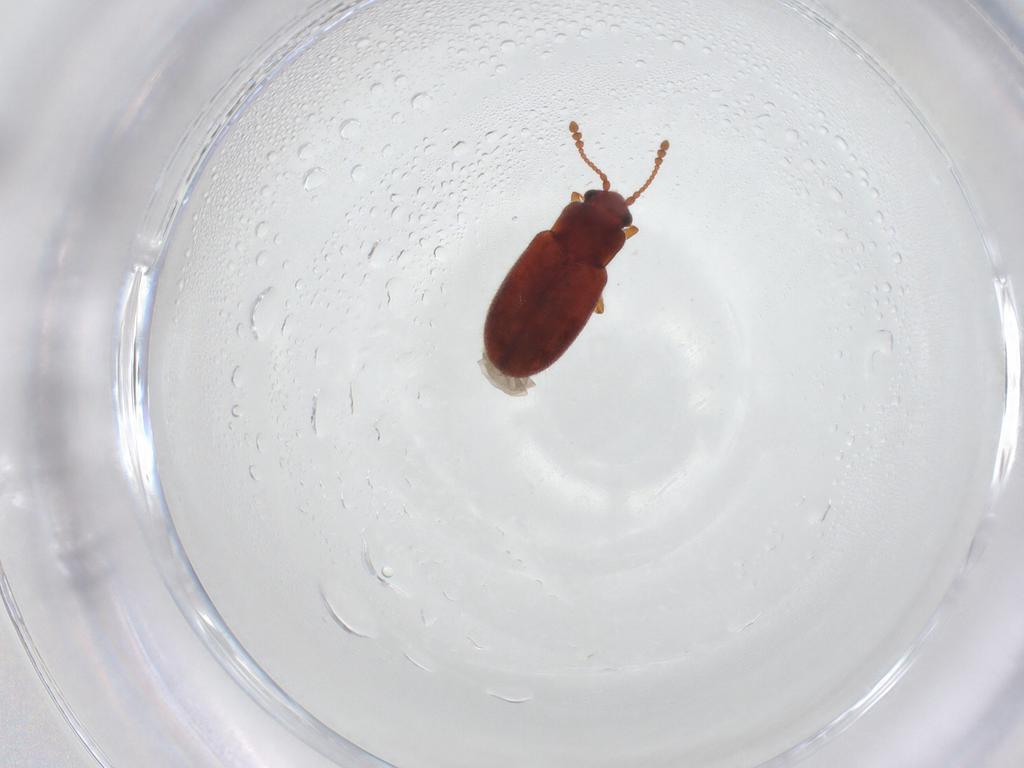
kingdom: Animalia
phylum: Arthropoda
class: Insecta
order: Coleoptera
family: Cryptophagidae
